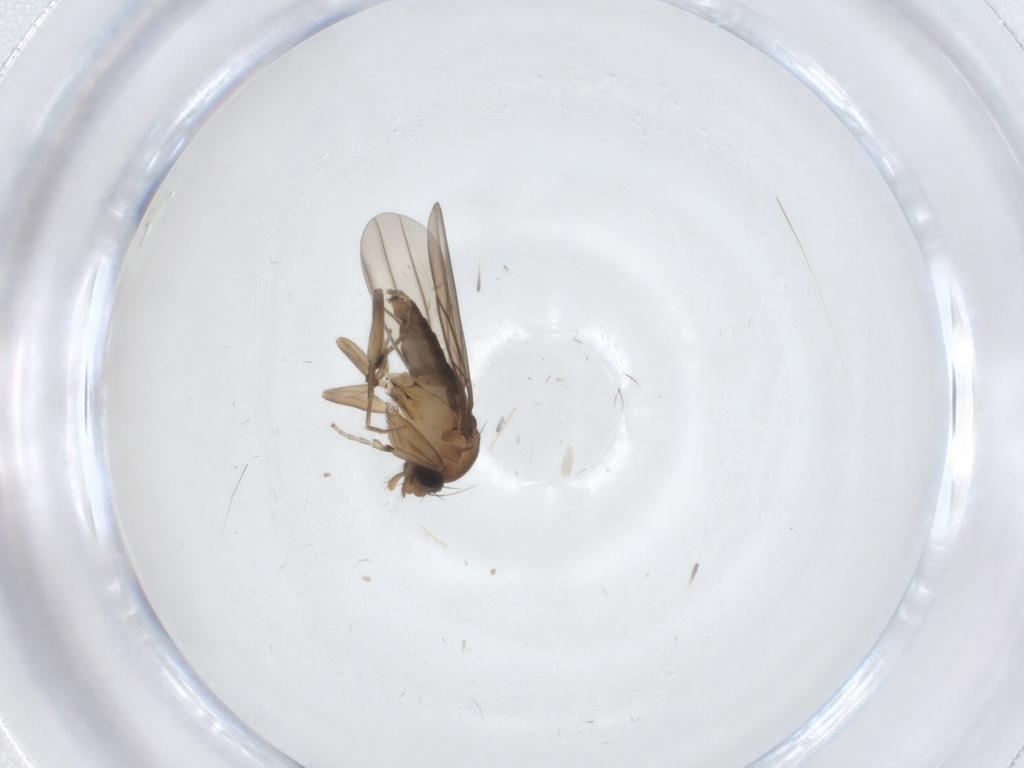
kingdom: Animalia
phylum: Arthropoda
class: Insecta
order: Diptera
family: Phoridae
